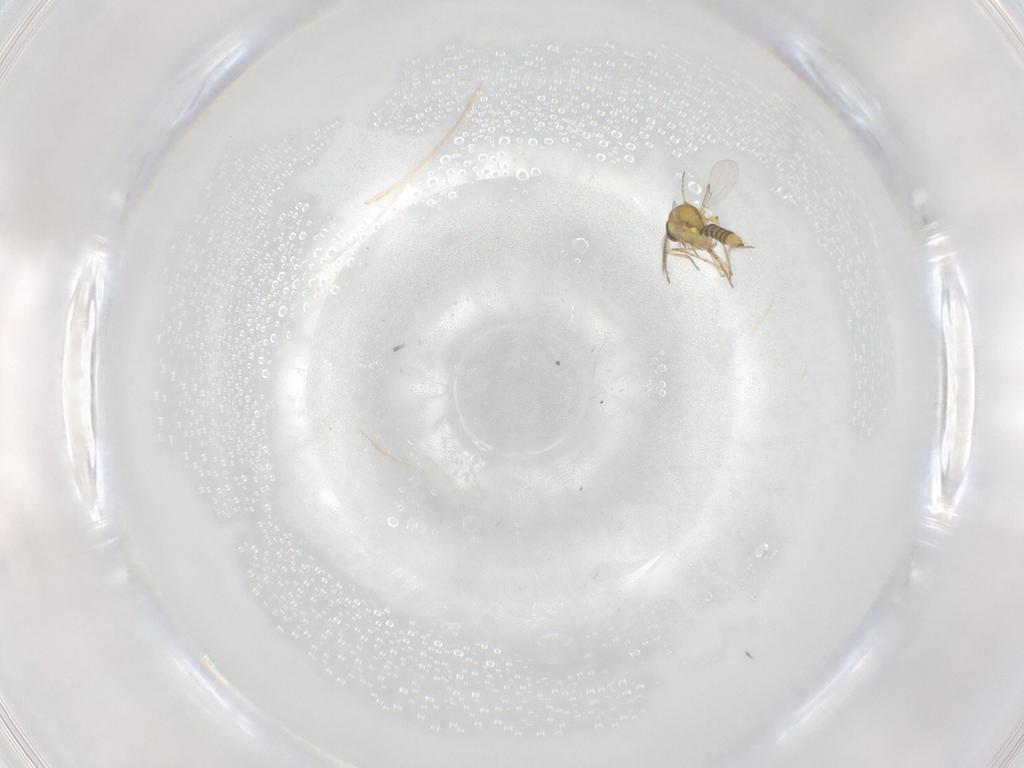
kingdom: Animalia
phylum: Arthropoda
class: Insecta
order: Diptera
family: Ceratopogonidae
